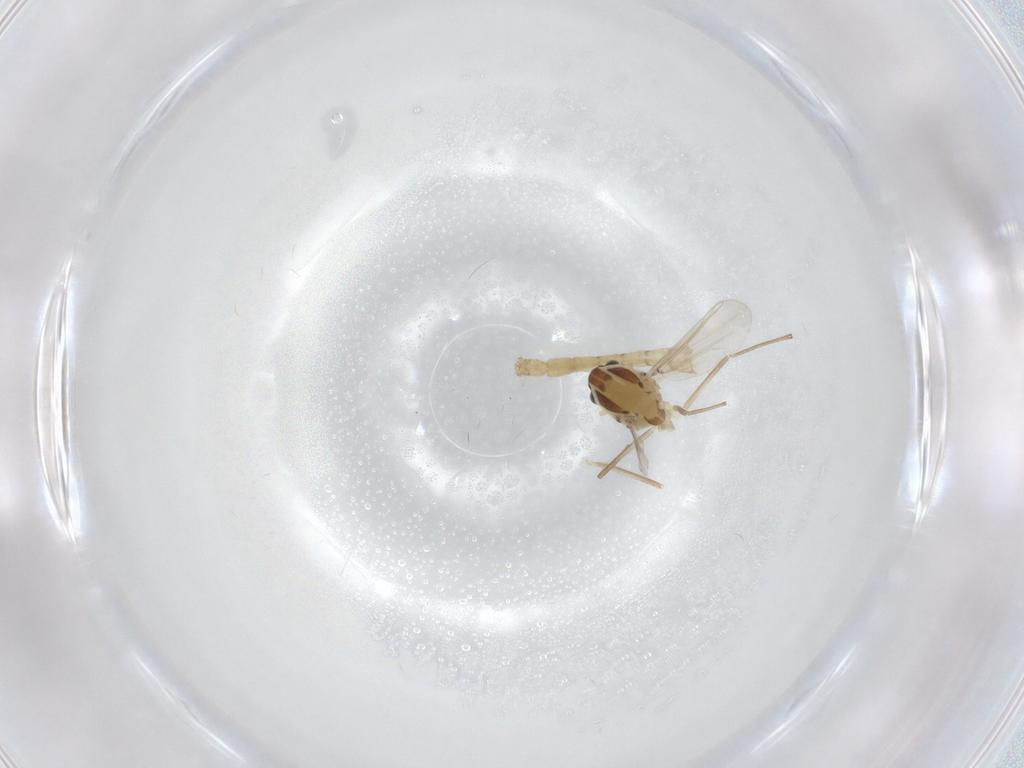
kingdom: Animalia
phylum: Arthropoda
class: Insecta
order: Diptera
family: Chironomidae
